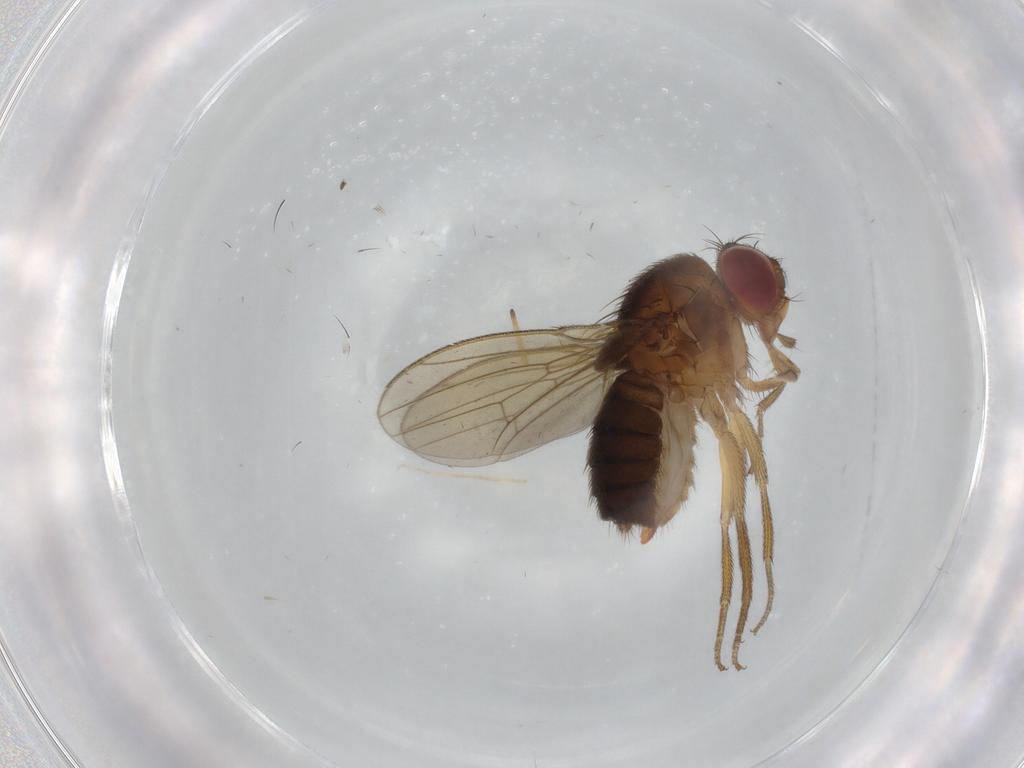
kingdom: Animalia
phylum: Arthropoda
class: Insecta
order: Diptera
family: Drosophilidae
